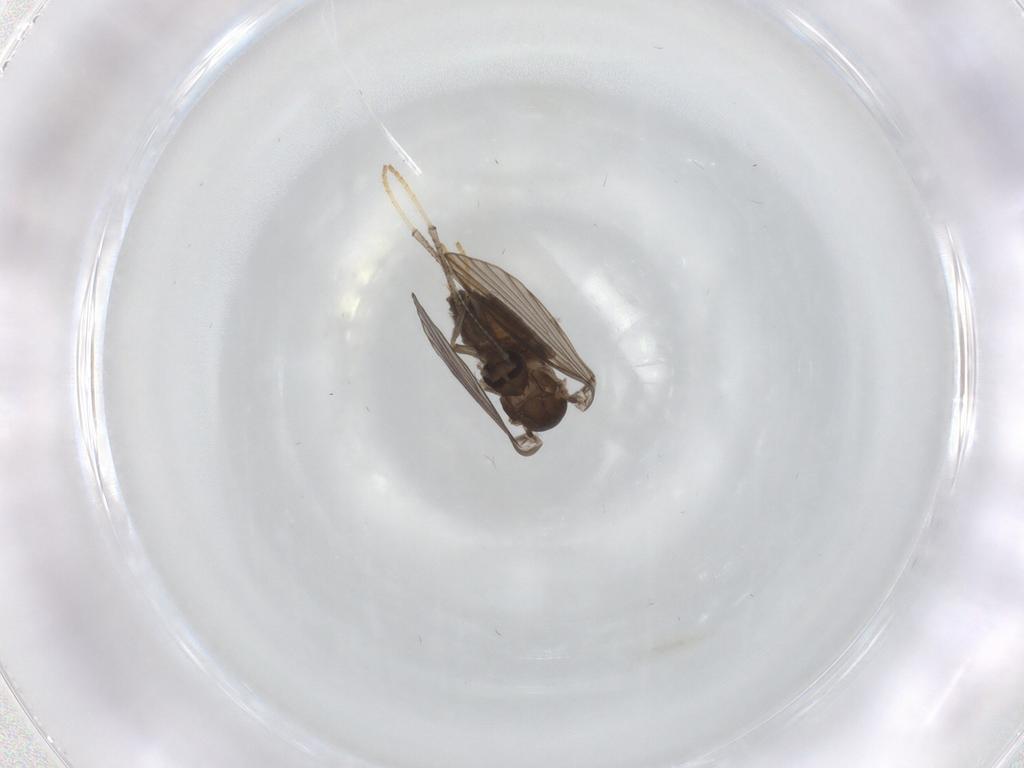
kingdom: Animalia
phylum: Arthropoda
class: Insecta
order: Diptera
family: Psychodidae
